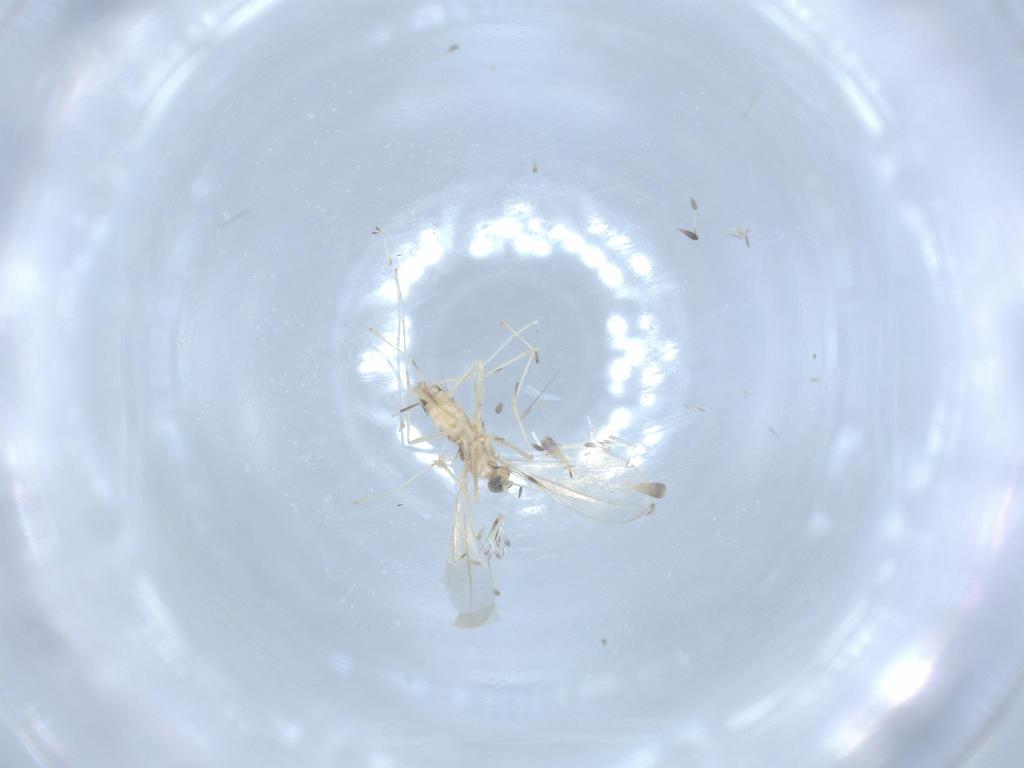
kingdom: Animalia
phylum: Arthropoda
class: Insecta
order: Diptera
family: Cecidomyiidae
